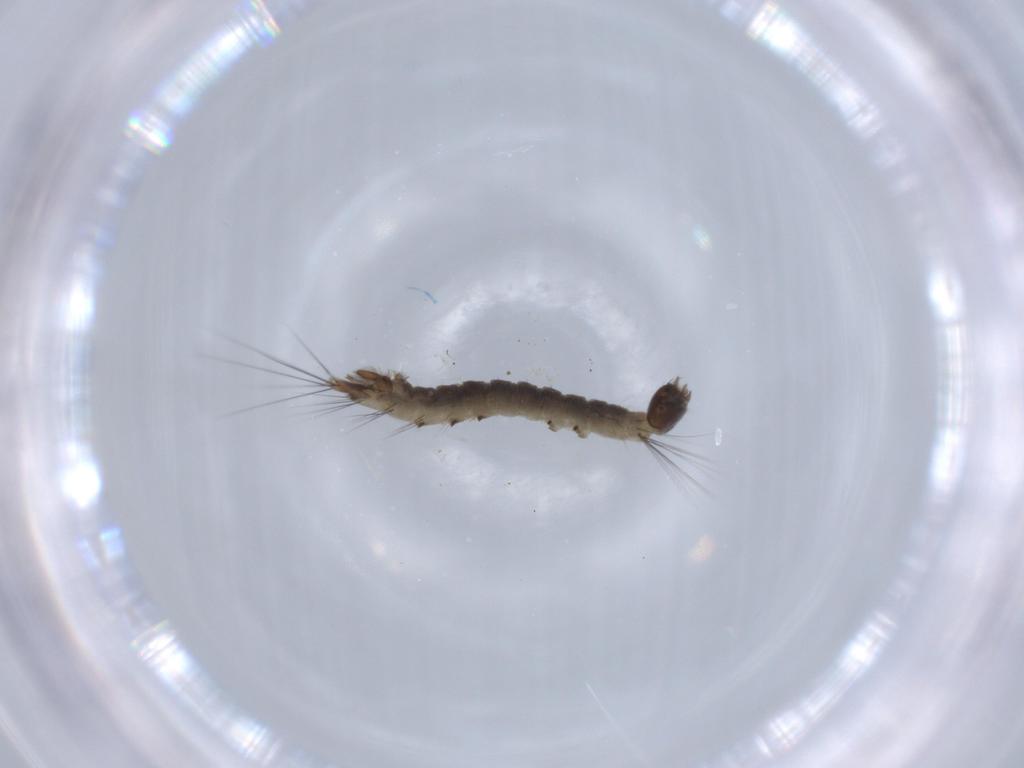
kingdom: Animalia
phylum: Arthropoda
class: Insecta
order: Diptera
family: Dixidae
